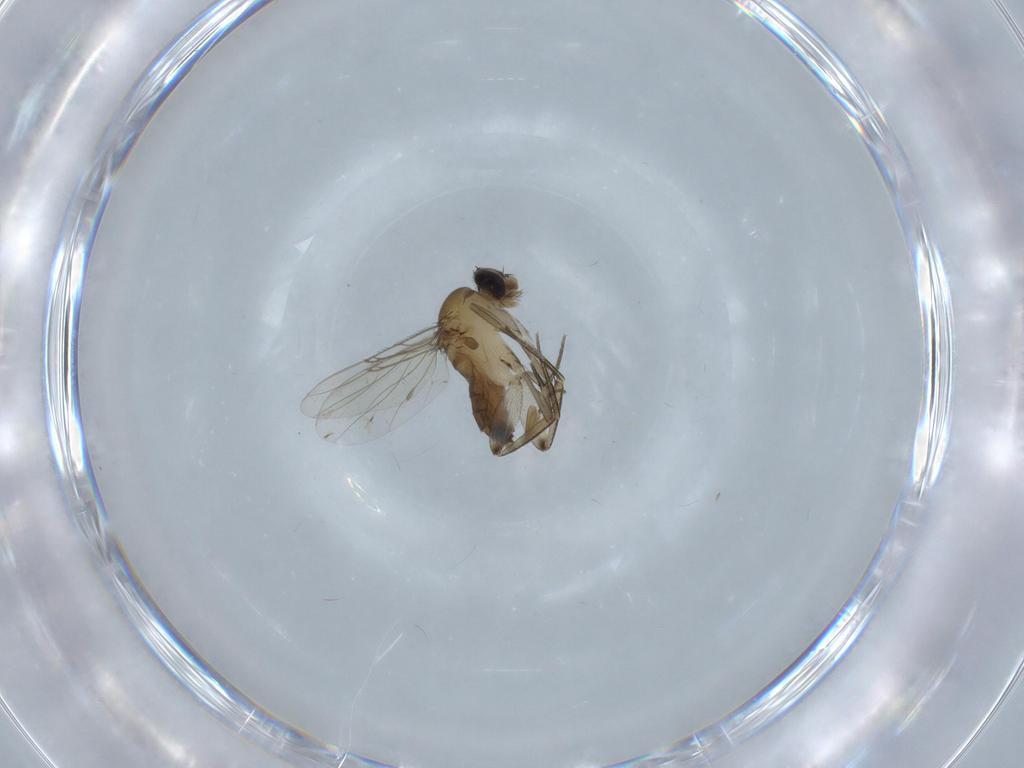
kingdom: Animalia
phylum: Arthropoda
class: Insecta
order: Diptera
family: Phoridae
